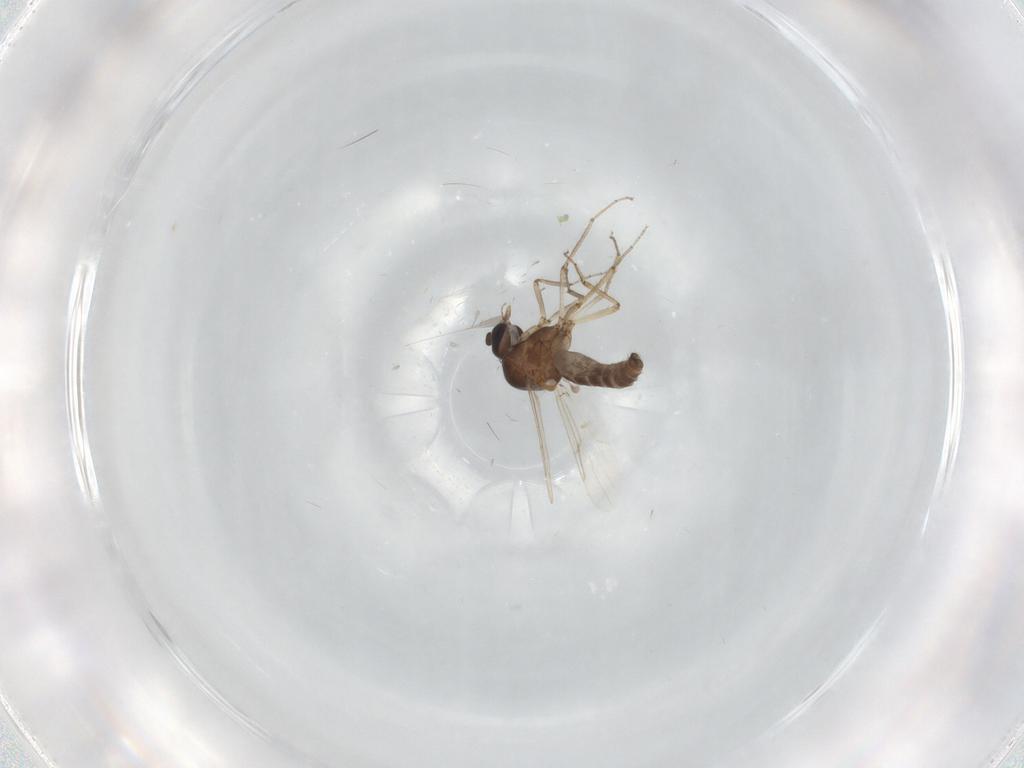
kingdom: Animalia
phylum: Arthropoda
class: Insecta
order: Diptera
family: Ceratopogonidae
